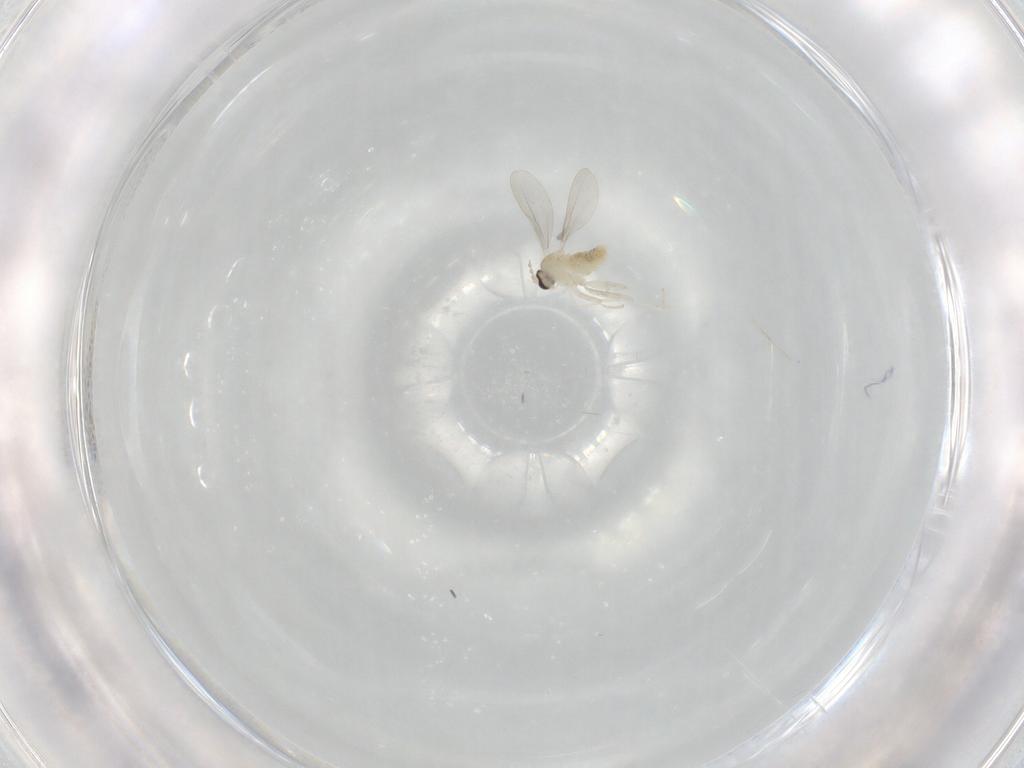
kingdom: Animalia
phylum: Arthropoda
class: Insecta
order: Diptera
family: Cecidomyiidae
